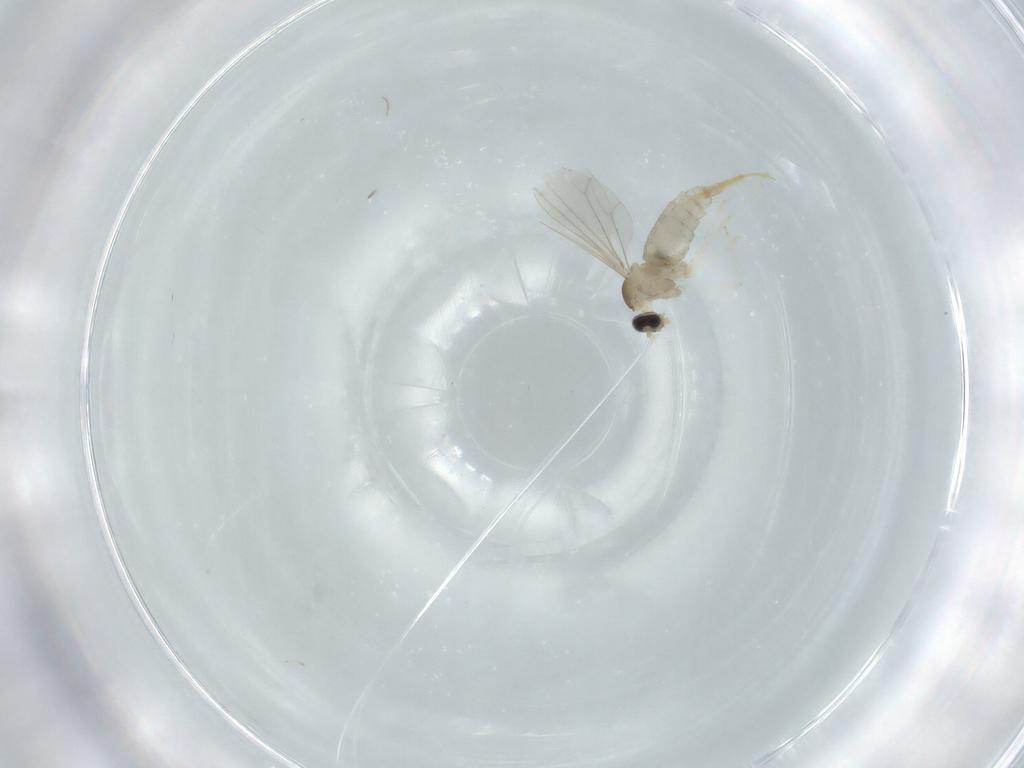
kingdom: Animalia
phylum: Arthropoda
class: Insecta
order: Diptera
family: Cecidomyiidae
